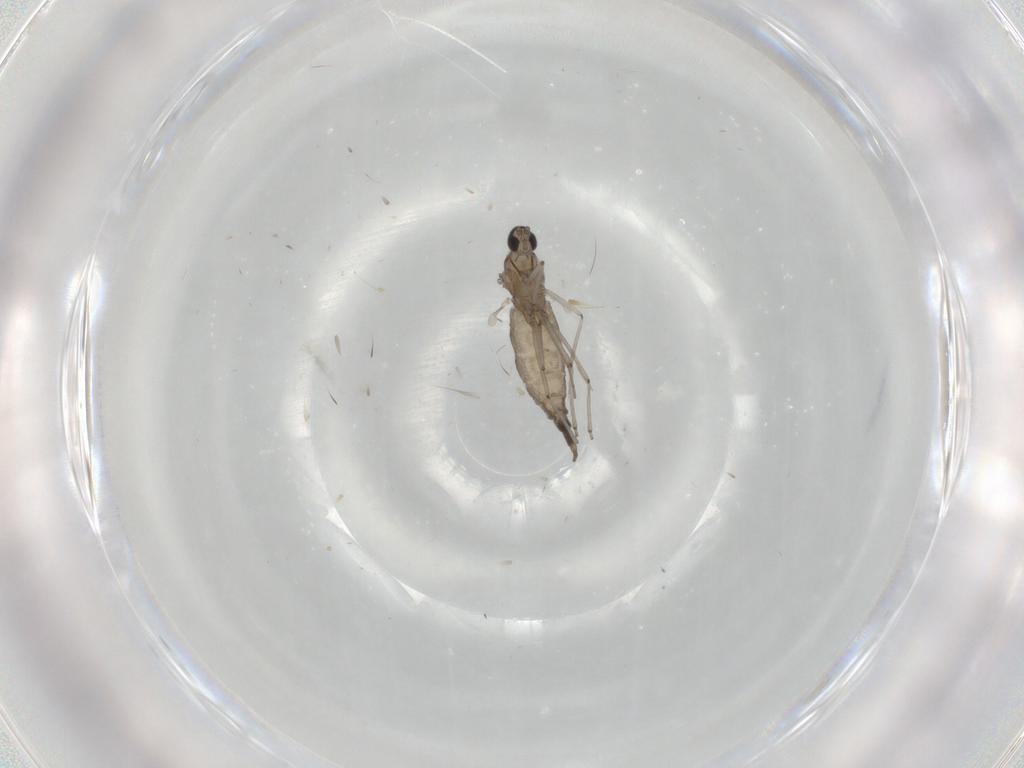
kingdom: Animalia
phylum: Arthropoda
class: Insecta
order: Diptera
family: Cecidomyiidae
